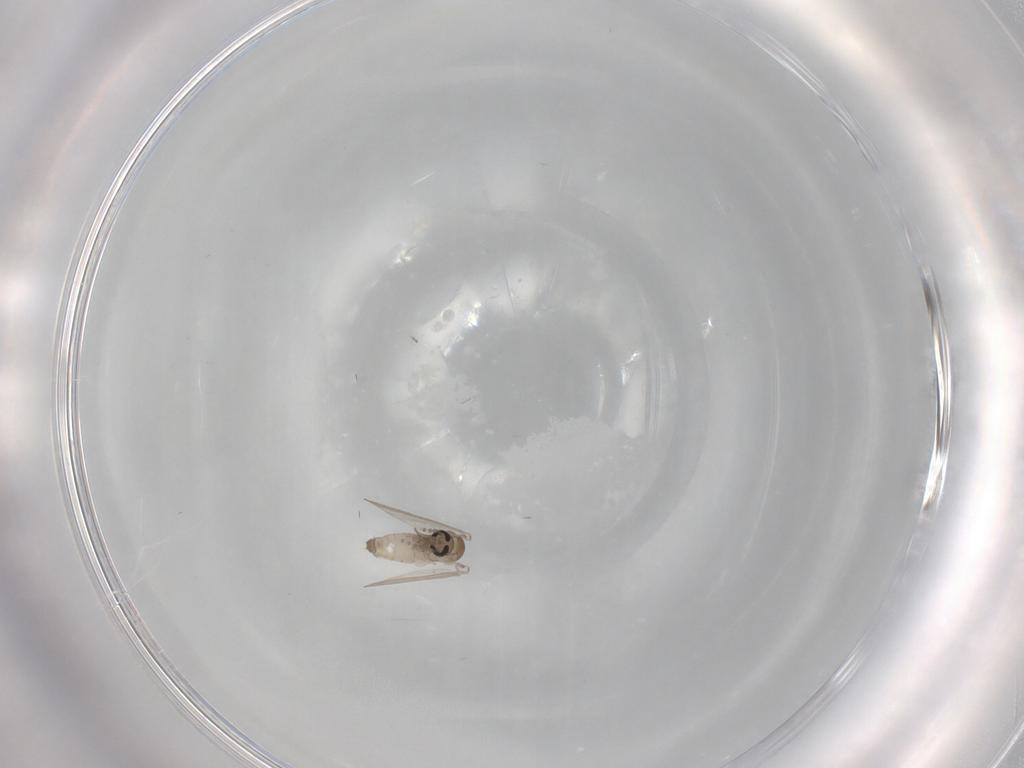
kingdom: Animalia
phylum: Arthropoda
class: Insecta
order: Diptera
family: Psychodidae
